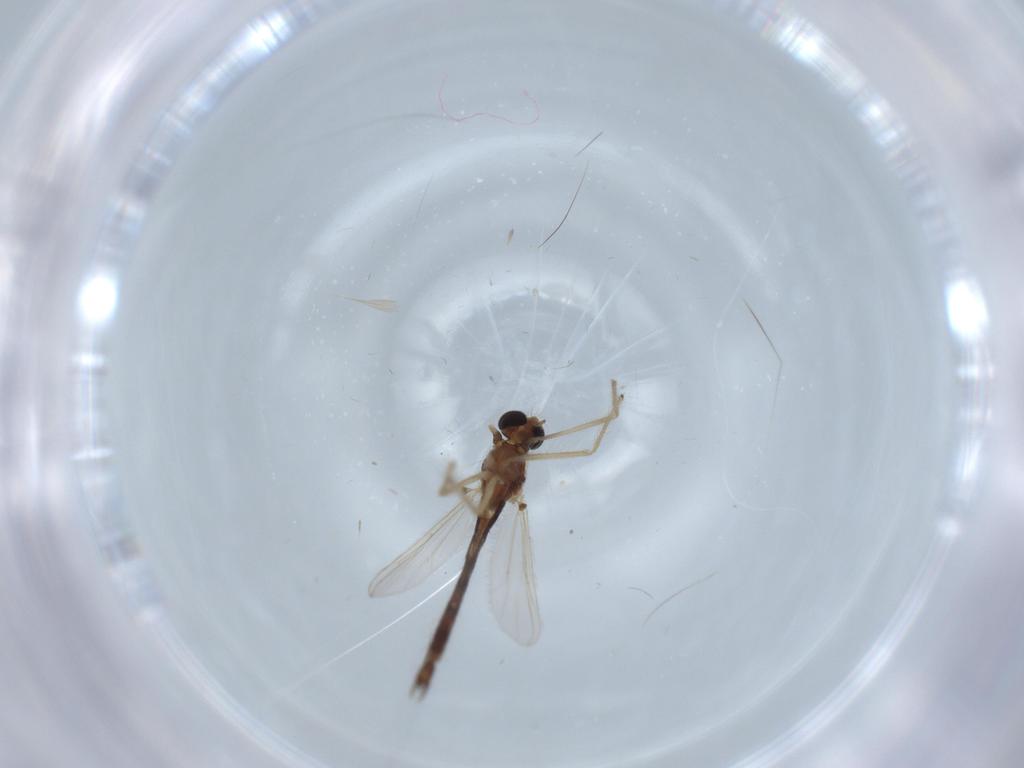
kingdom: Animalia
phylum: Arthropoda
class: Insecta
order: Diptera
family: Chironomidae
